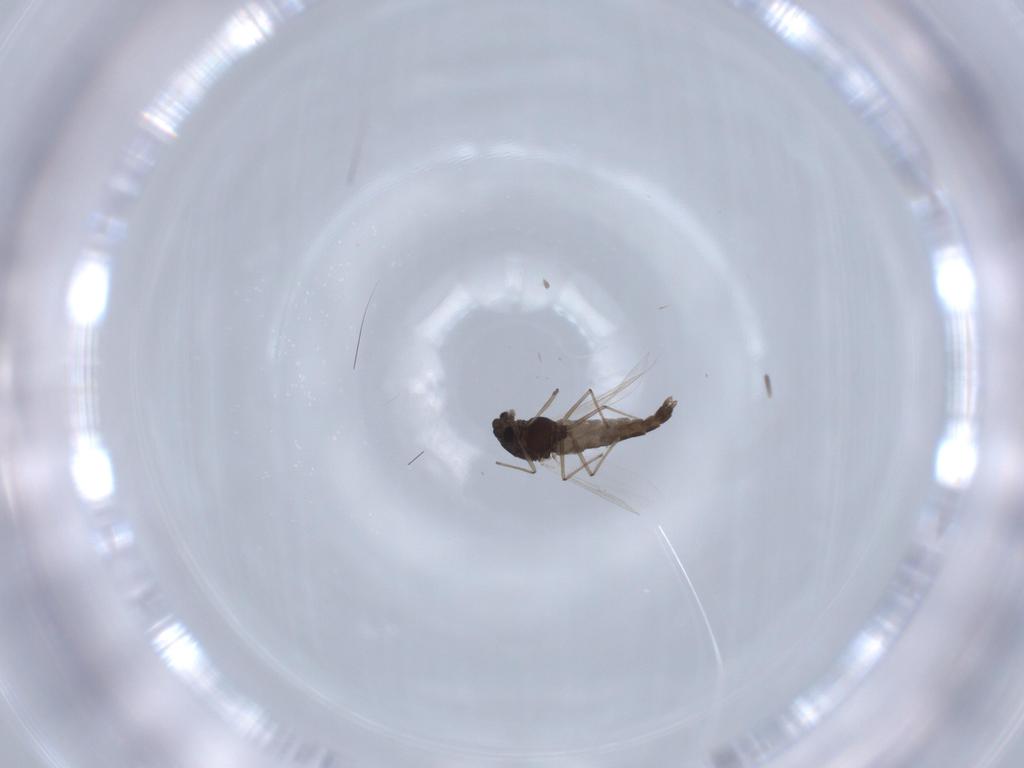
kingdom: Animalia
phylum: Arthropoda
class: Insecta
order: Diptera
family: Chironomidae
